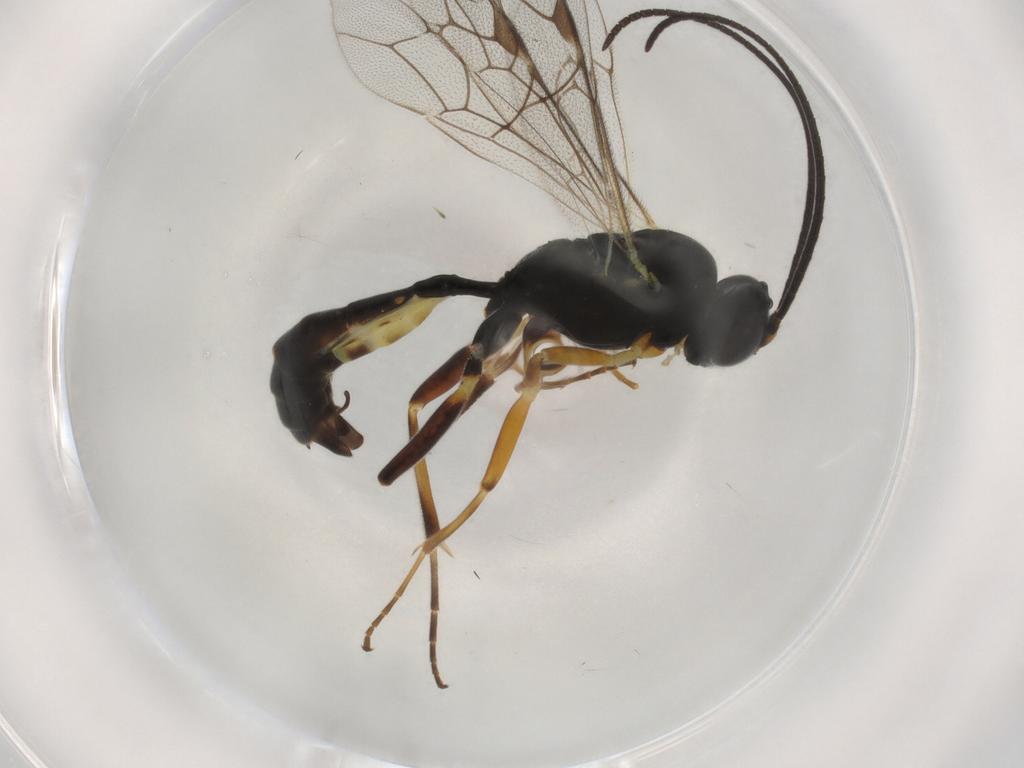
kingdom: Animalia
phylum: Arthropoda
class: Insecta
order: Hymenoptera
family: Ichneumonidae
